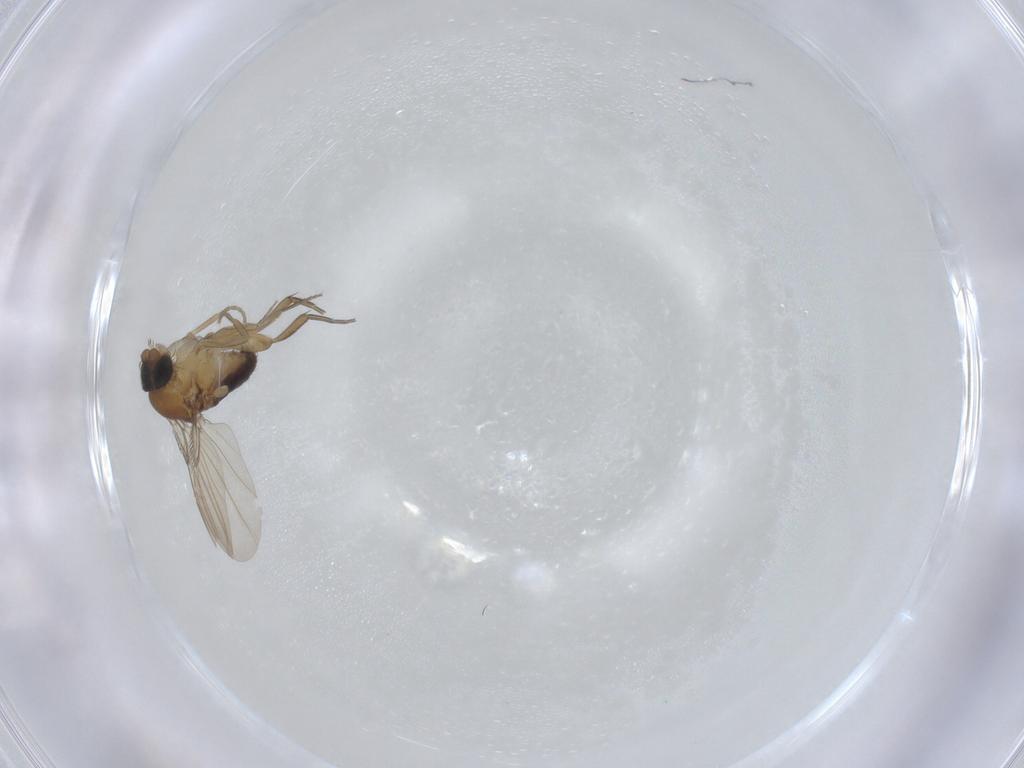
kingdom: Animalia
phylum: Arthropoda
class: Insecta
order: Diptera
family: Phoridae
